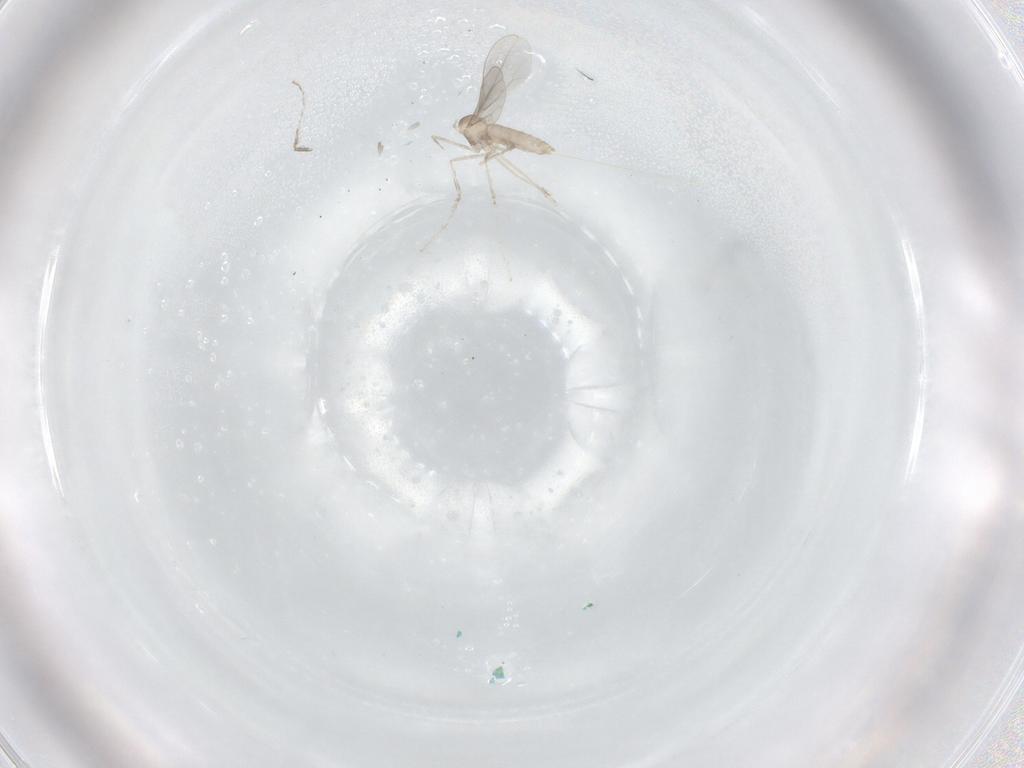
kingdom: Animalia
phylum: Arthropoda
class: Insecta
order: Diptera
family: Cecidomyiidae
